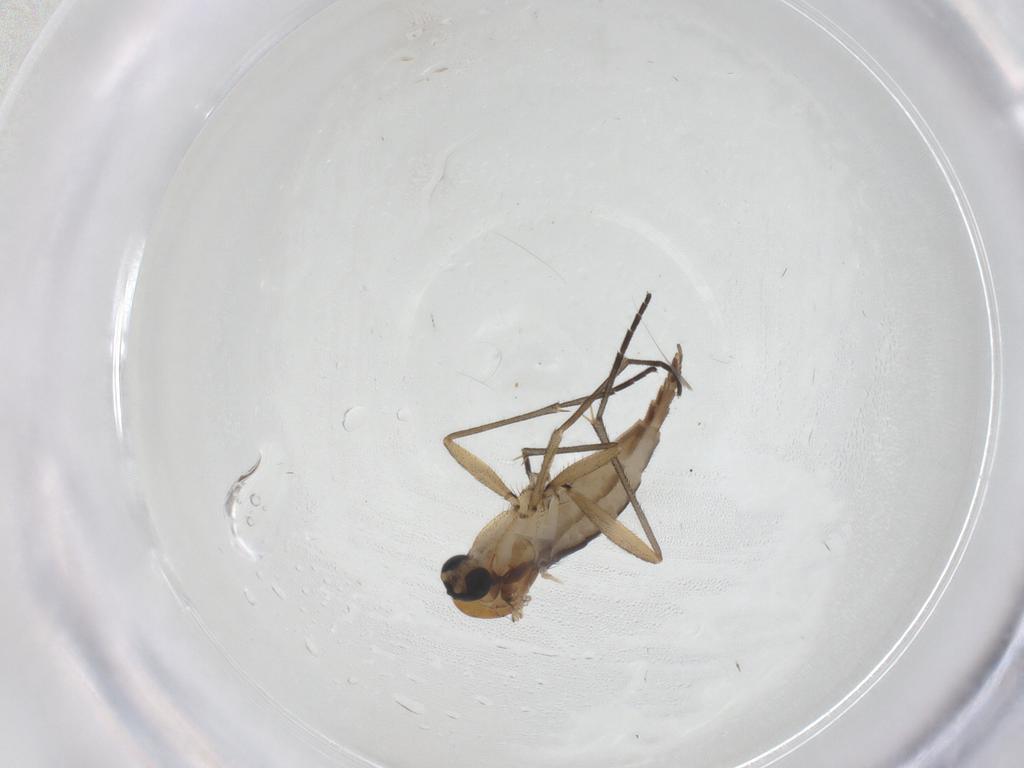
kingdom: Animalia
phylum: Arthropoda
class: Insecta
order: Diptera
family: Sciaridae
